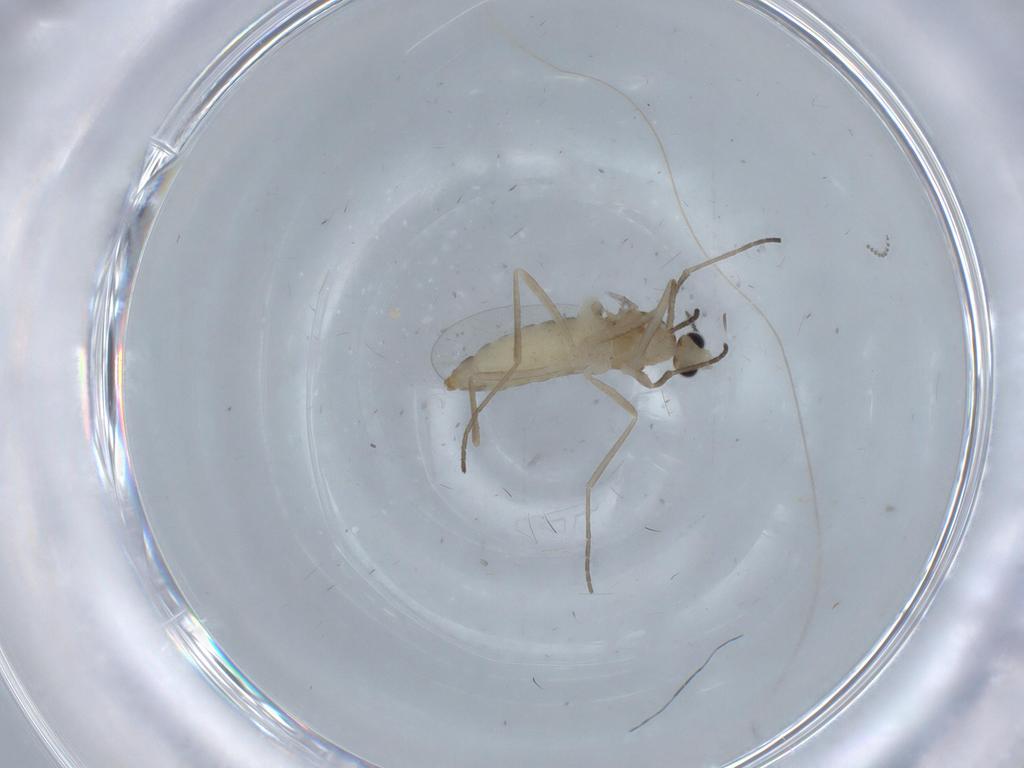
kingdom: Animalia
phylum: Arthropoda
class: Insecta
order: Diptera
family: Cecidomyiidae
